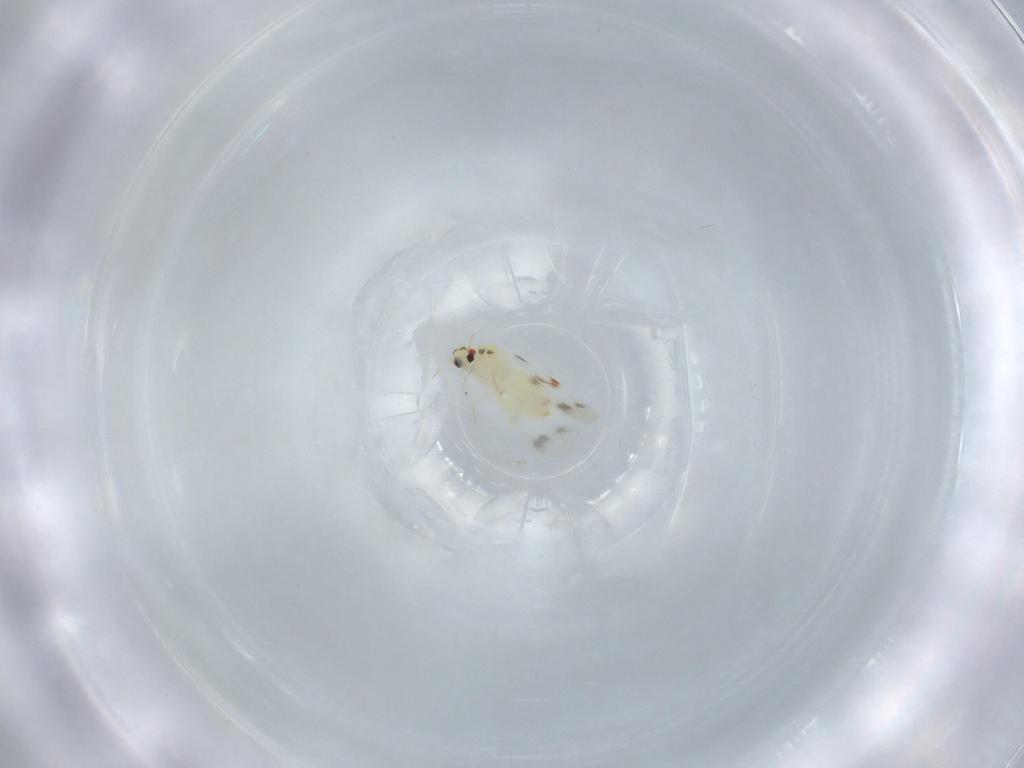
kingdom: Animalia
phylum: Arthropoda
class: Insecta
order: Hemiptera
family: Aleyrodidae
